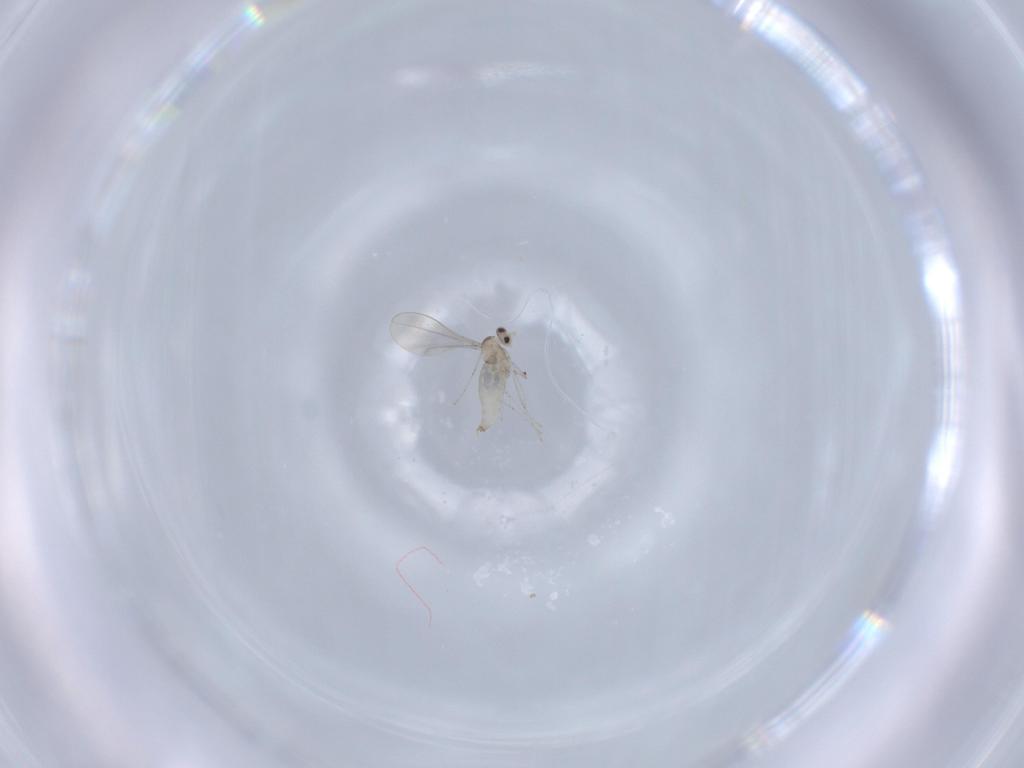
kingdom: Animalia
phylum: Arthropoda
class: Insecta
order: Diptera
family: Cecidomyiidae
